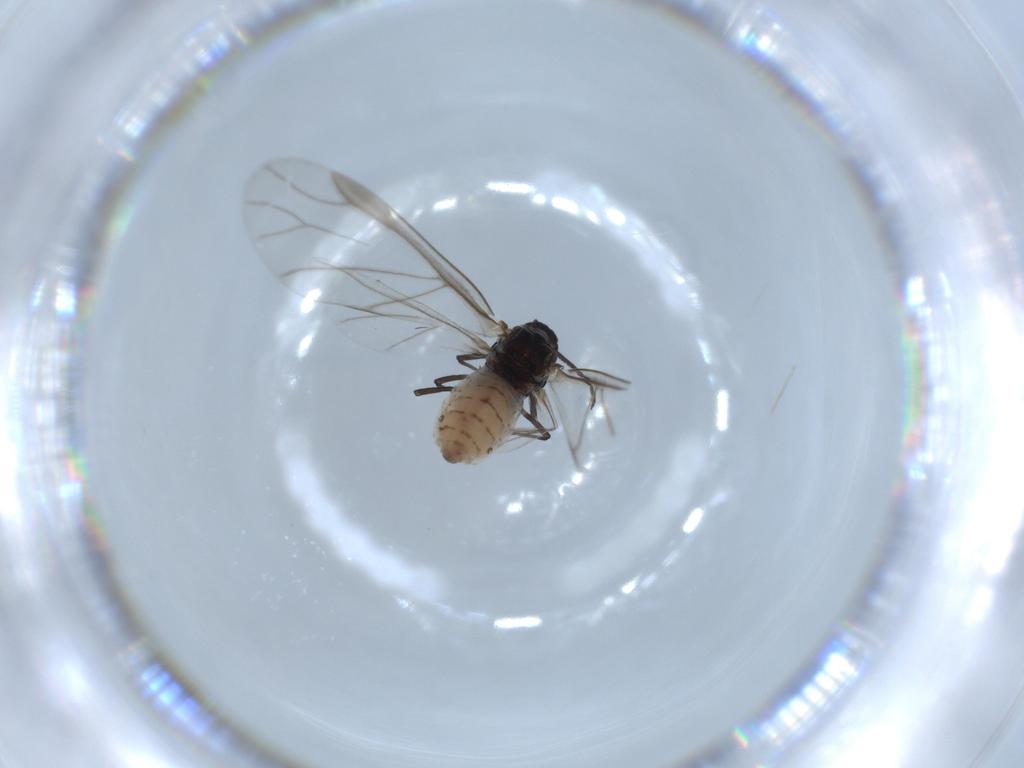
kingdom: Animalia
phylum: Arthropoda
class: Insecta
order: Hemiptera
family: Aphididae
